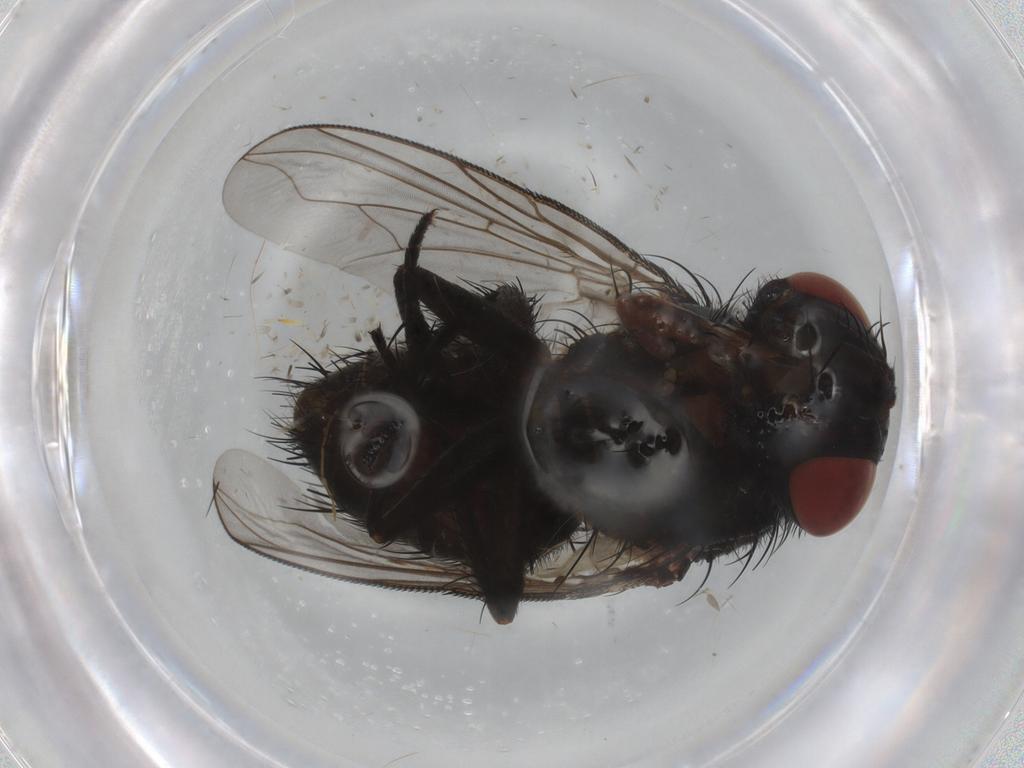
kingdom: Animalia
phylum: Arthropoda
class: Insecta
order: Diptera
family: Tachinidae
